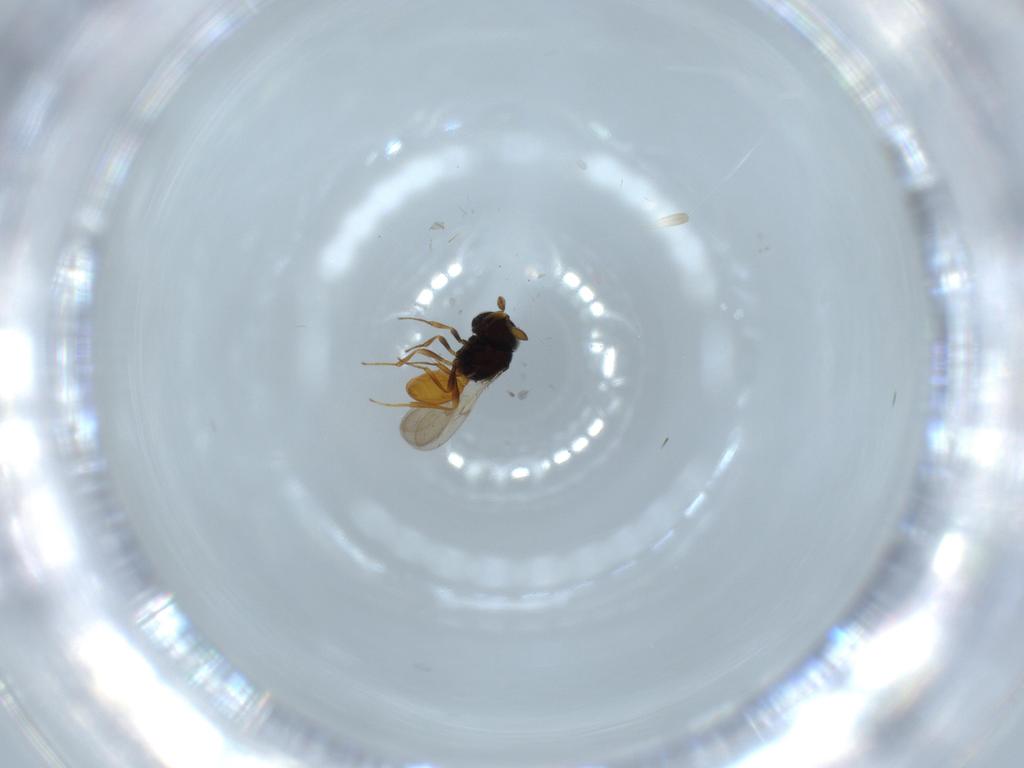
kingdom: Animalia
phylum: Arthropoda
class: Insecta
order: Hymenoptera
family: Scelionidae
